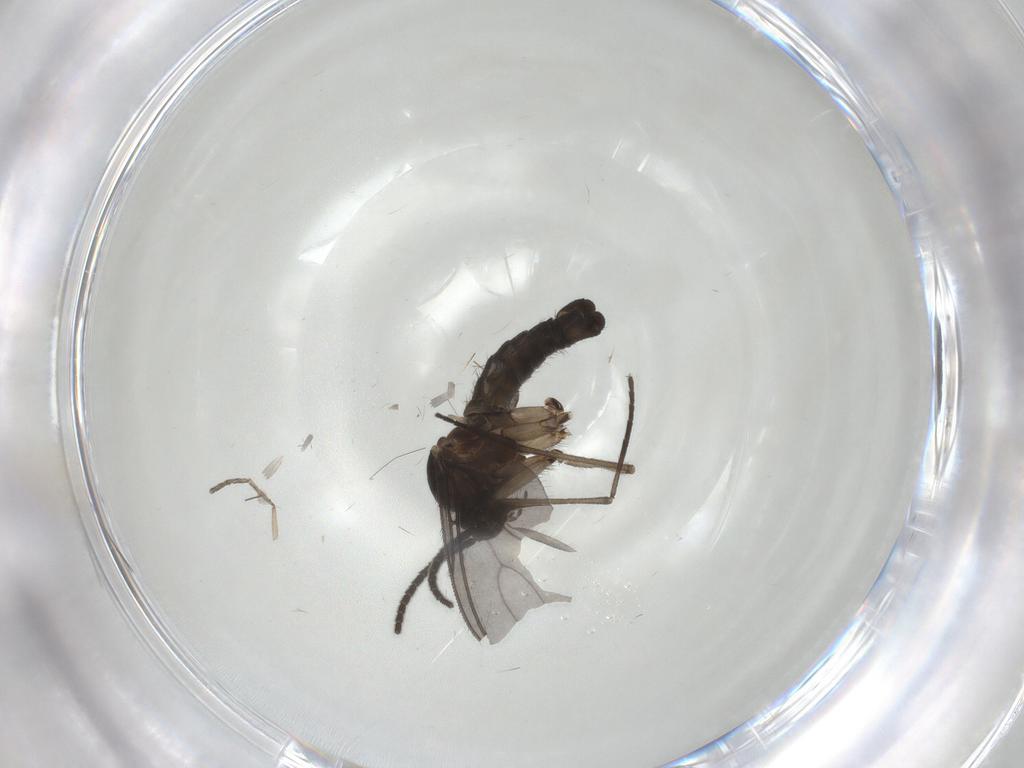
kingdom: Animalia
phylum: Arthropoda
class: Insecta
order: Diptera
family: Sciaridae
